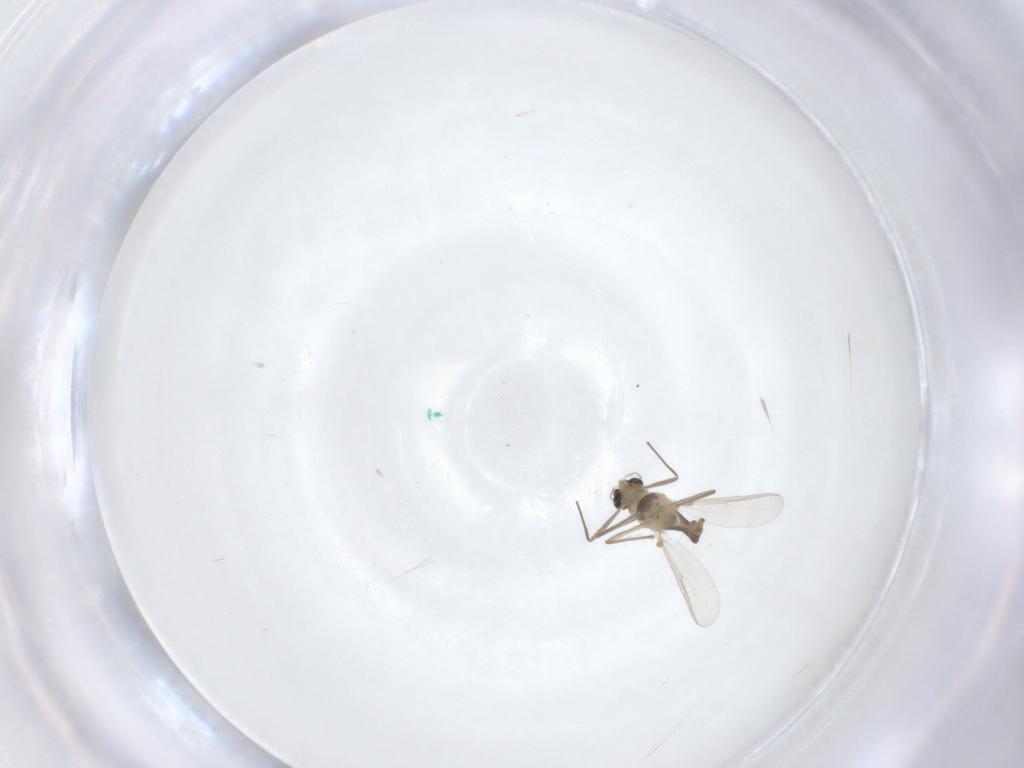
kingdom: Animalia
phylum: Arthropoda
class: Insecta
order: Diptera
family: Chironomidae
